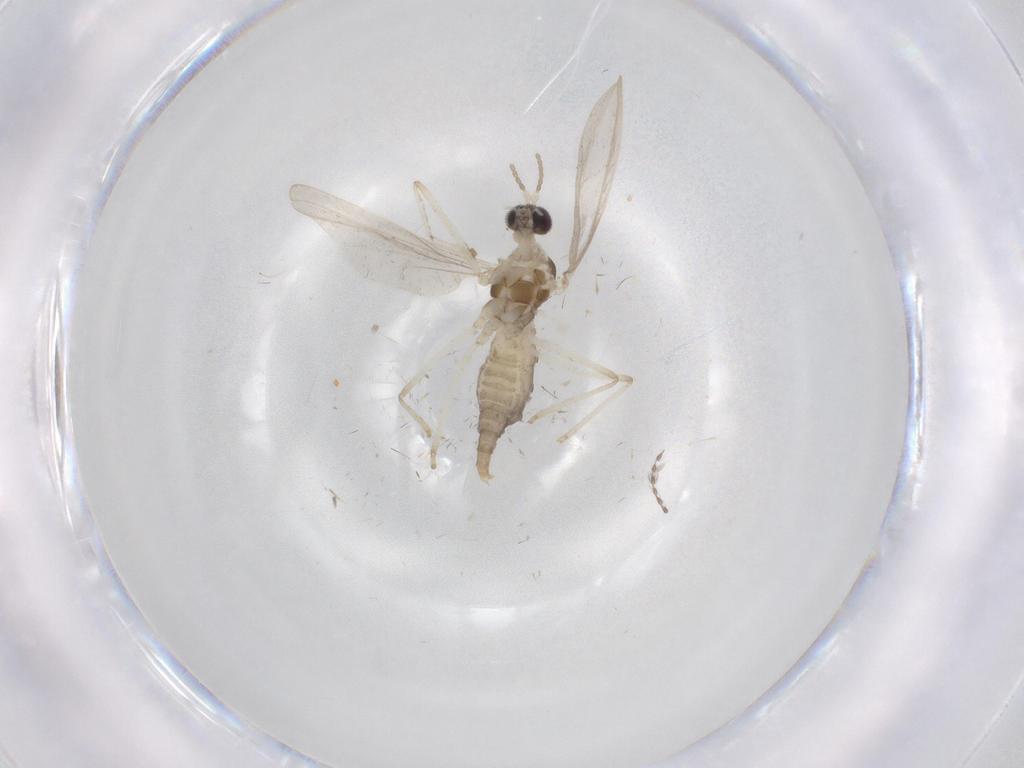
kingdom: Animalia
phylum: Arthropoda
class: Insecta
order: Diptera
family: Cecidomyiidae
